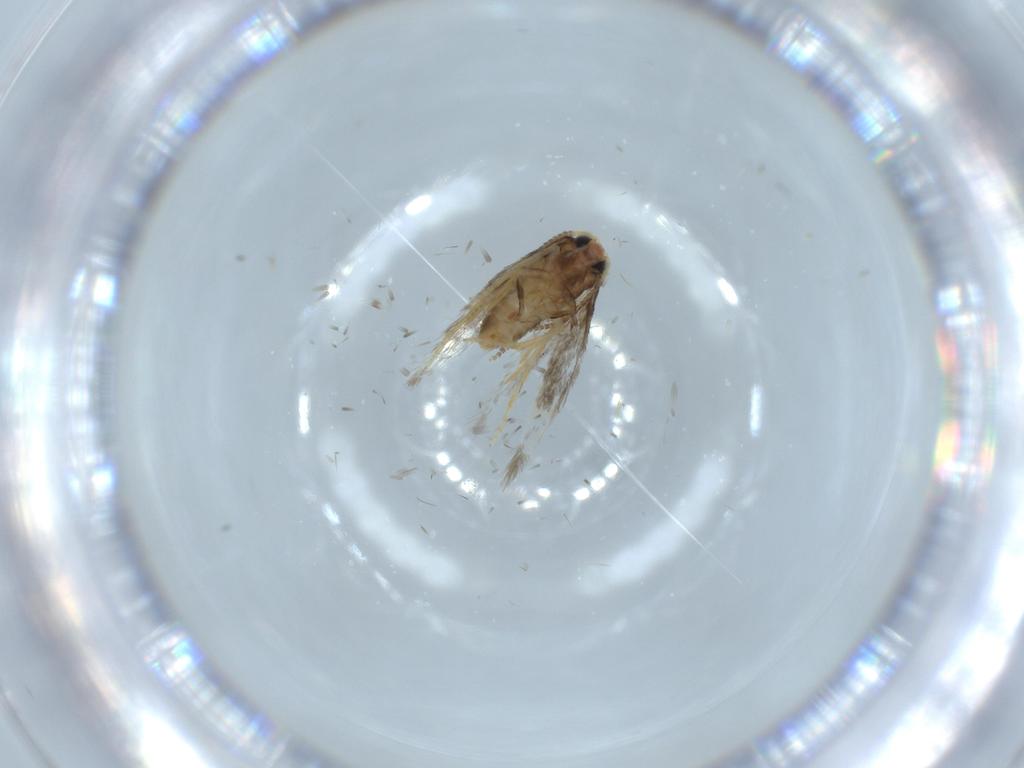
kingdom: Animalia
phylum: Arthropoda
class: Insecta
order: Lepidoptera
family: Nepticulidae
